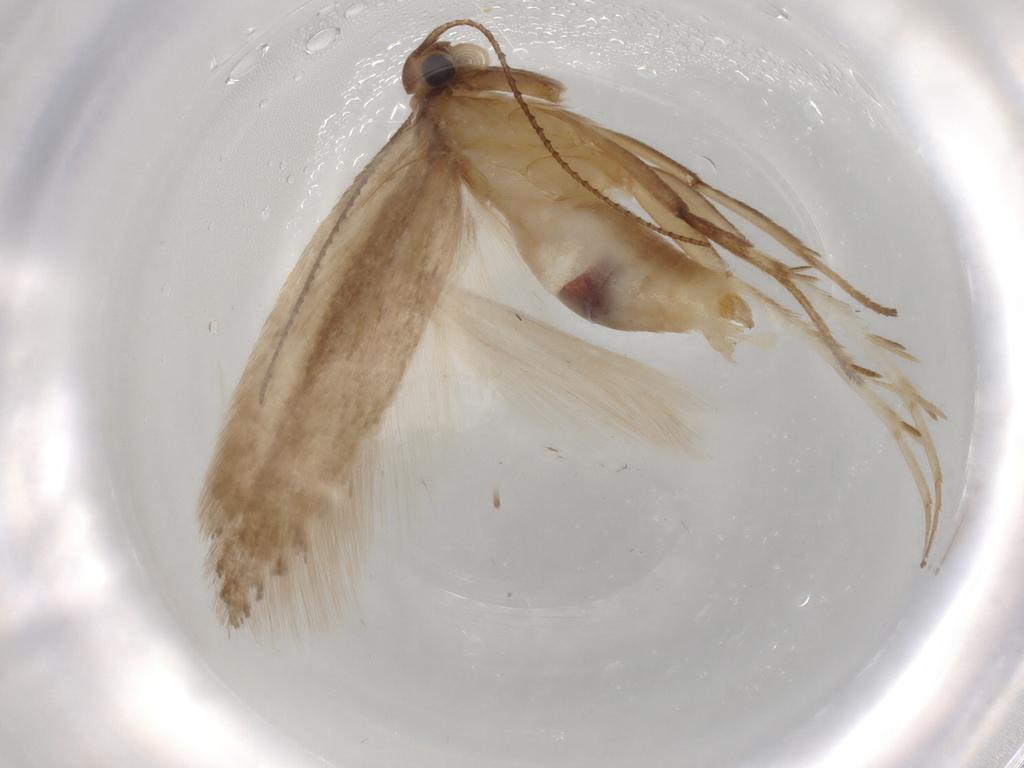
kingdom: Animalia
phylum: Arthropoda
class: Insecta
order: Lepidoptera
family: Gelechiidae
